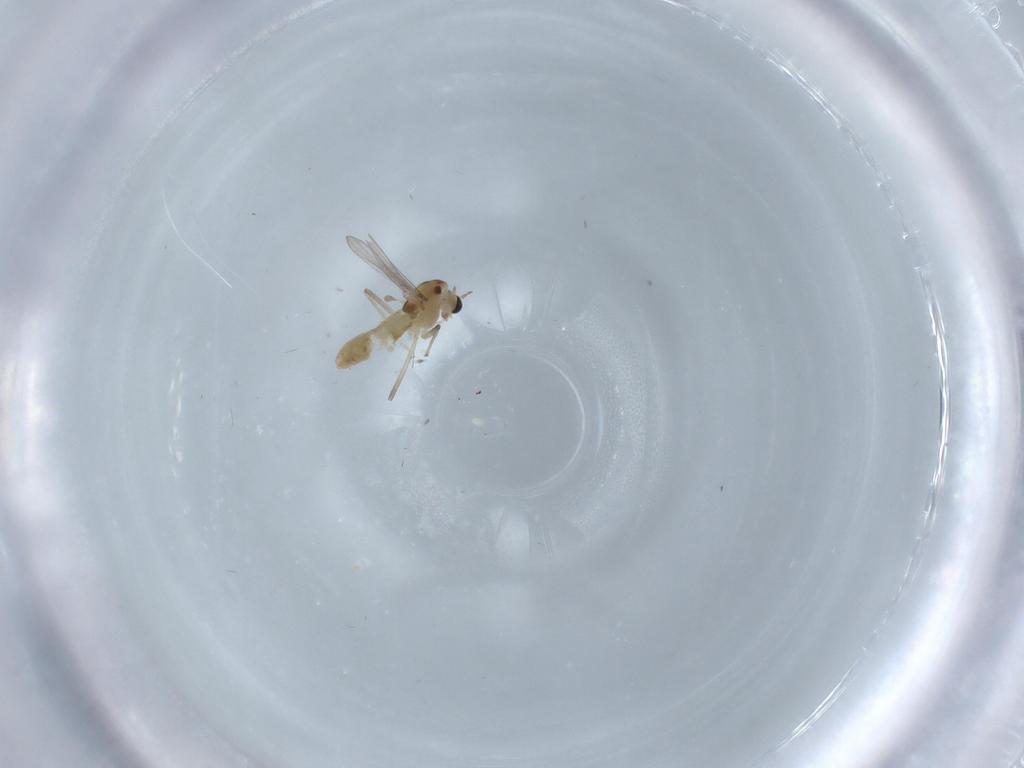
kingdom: Animalia
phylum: Arthropoda
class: Insecta
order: Diptera
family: Chironomidae
